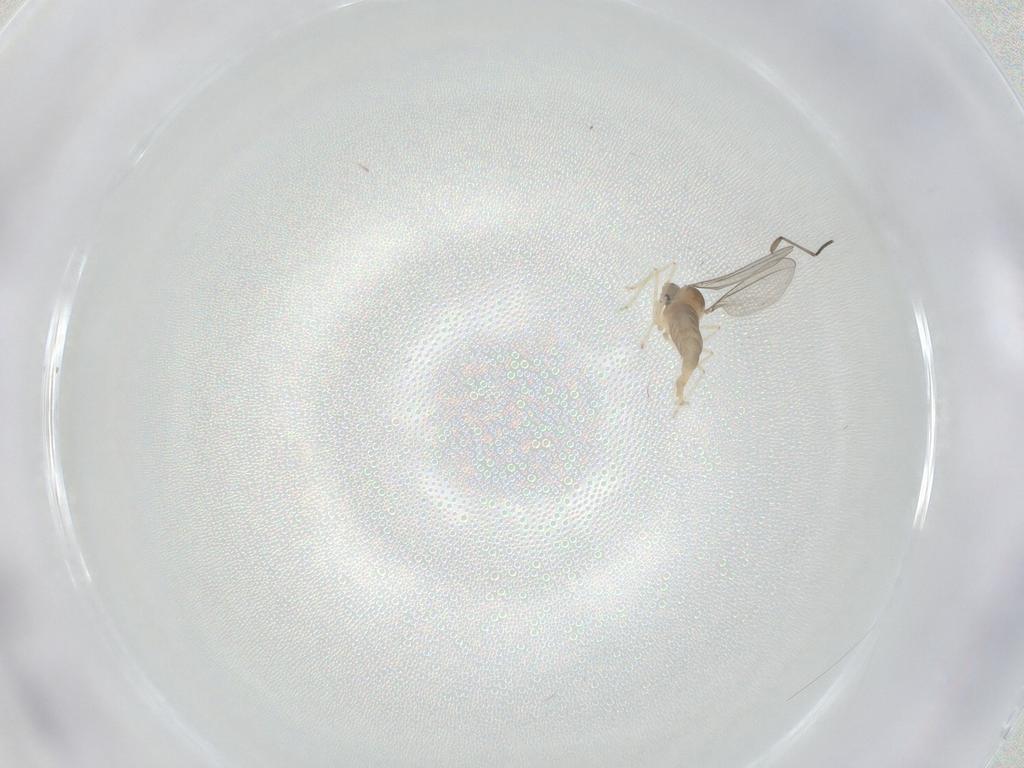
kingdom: Animalia
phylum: Arthropoda
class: Insecta
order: Diptera
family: Sciaridae
